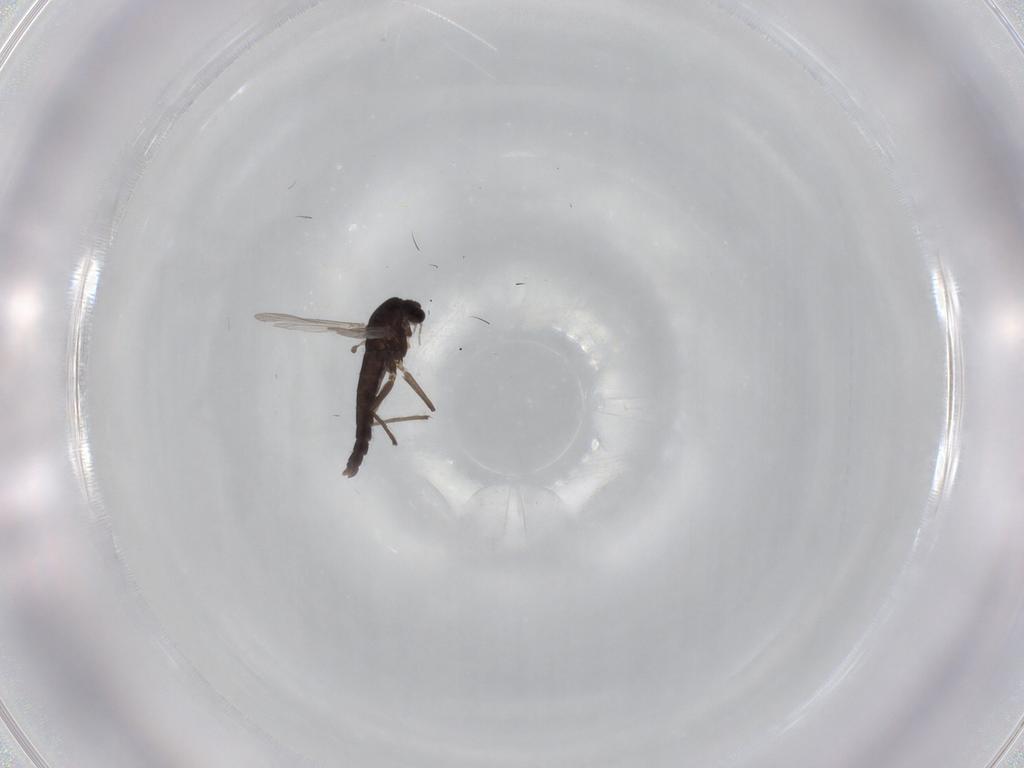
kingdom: Animalia
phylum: Arthropoda
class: Insecta
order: Diptera
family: Chironomidae
